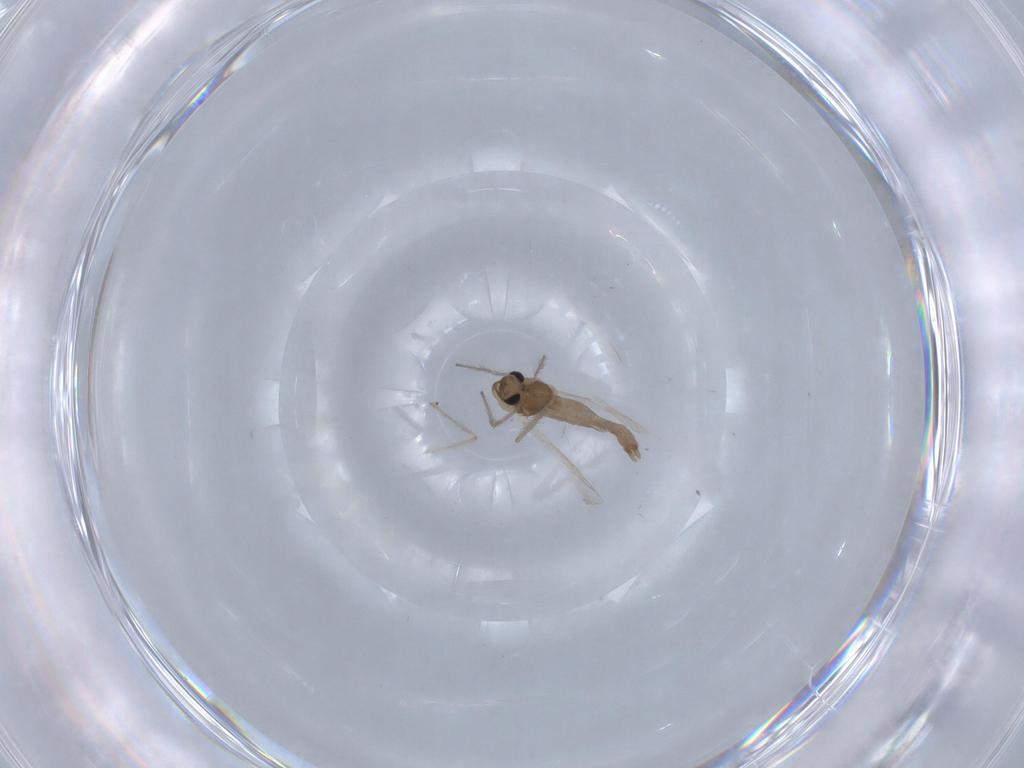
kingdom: Animalia
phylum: Arthropoda
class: Insecta
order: Diptera
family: Chironomidae
